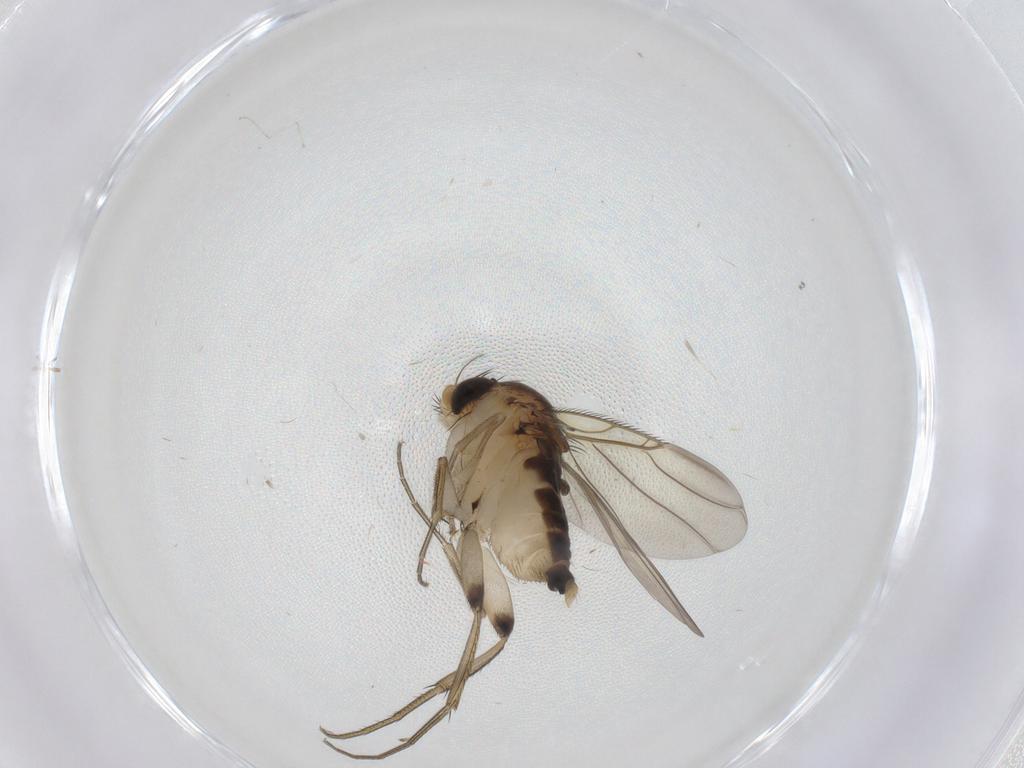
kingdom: Animalia
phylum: Arthropoda
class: Insecta
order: Diptera
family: Phoridae
